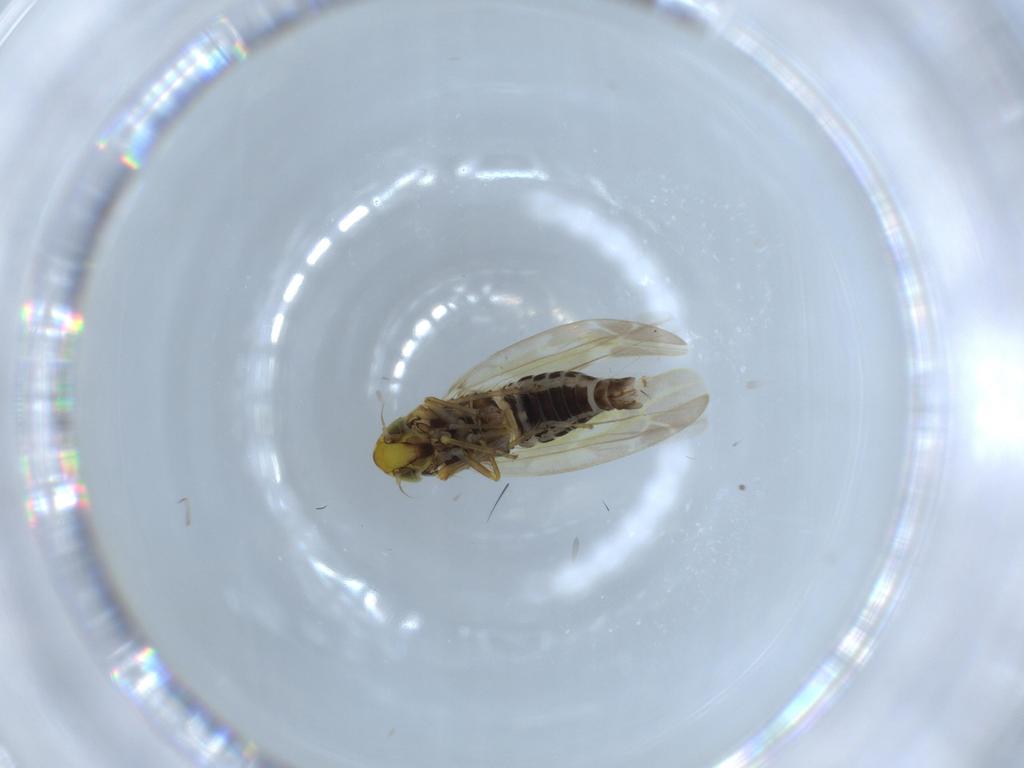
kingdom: Animalia
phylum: Arthropoda
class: Insecta
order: Hemiptera
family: Cicadellidae
